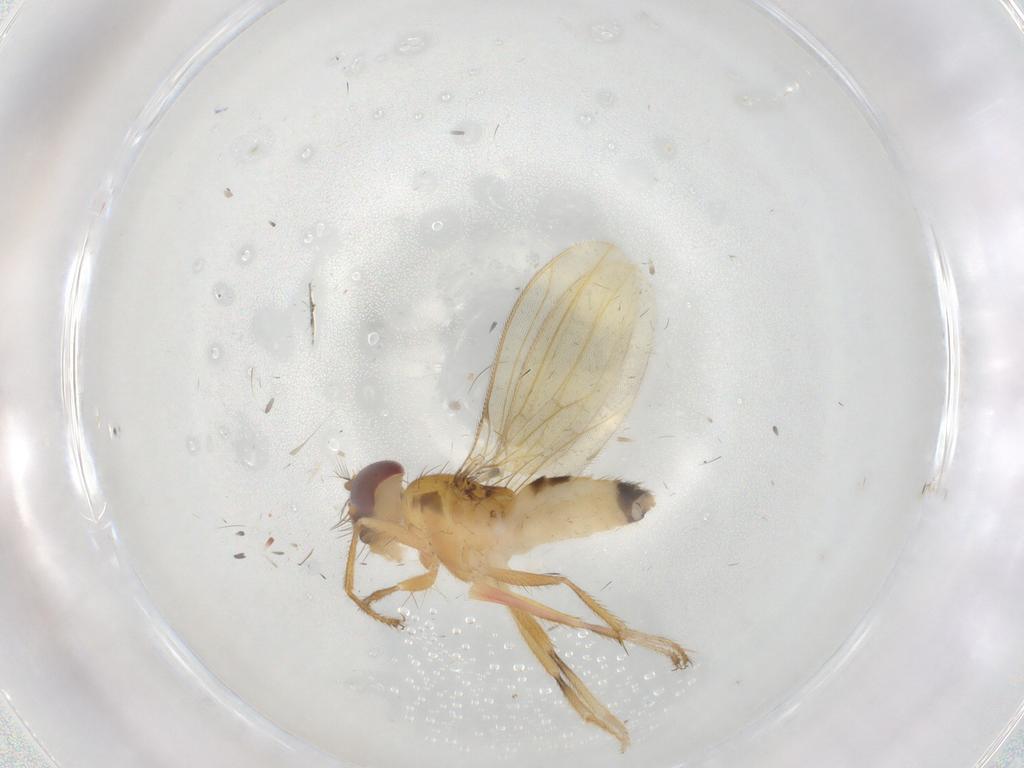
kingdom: Animalia
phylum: Arthropoda
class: Insecta
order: Diptera
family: Periscelididae
